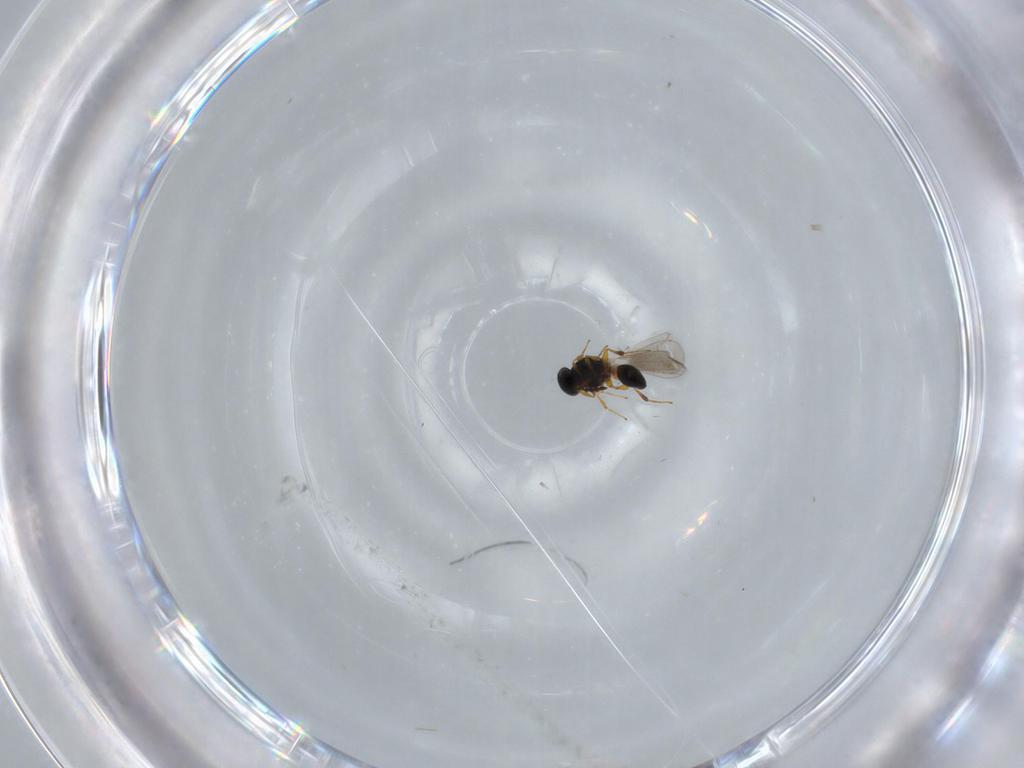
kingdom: Animalia
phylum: Arthropoda
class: Insecta
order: Hymenoptera
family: Platygastridae
